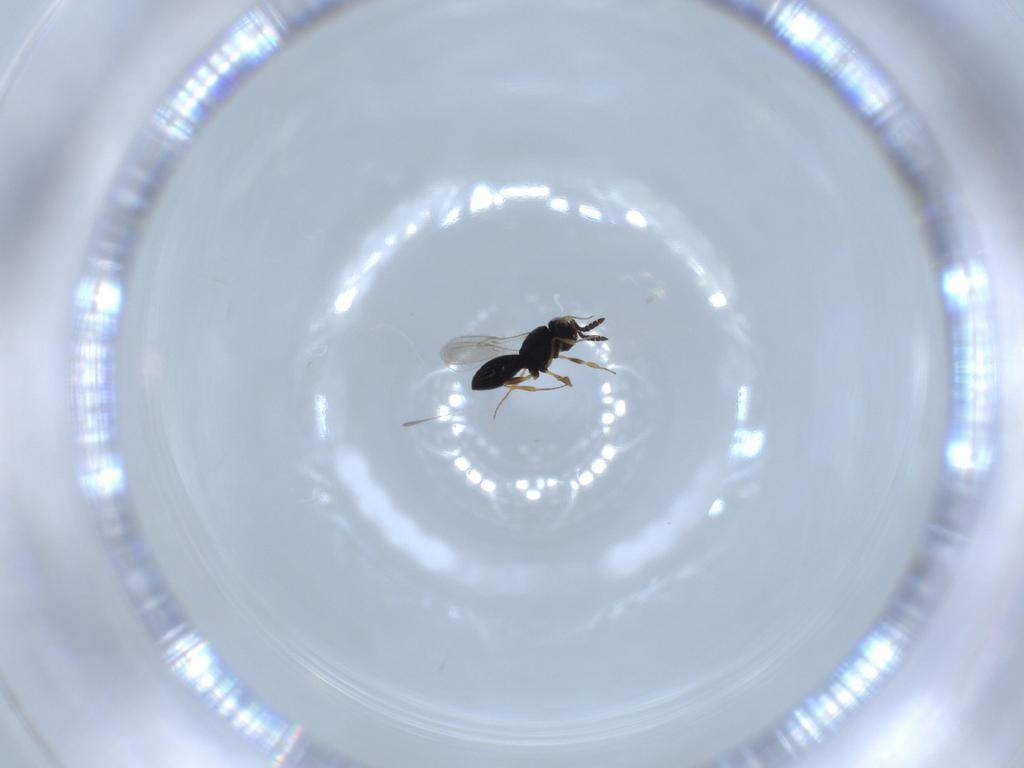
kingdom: Animalia
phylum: Arthropoda
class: Insecta
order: Hymenoptera
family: Scelionidae
